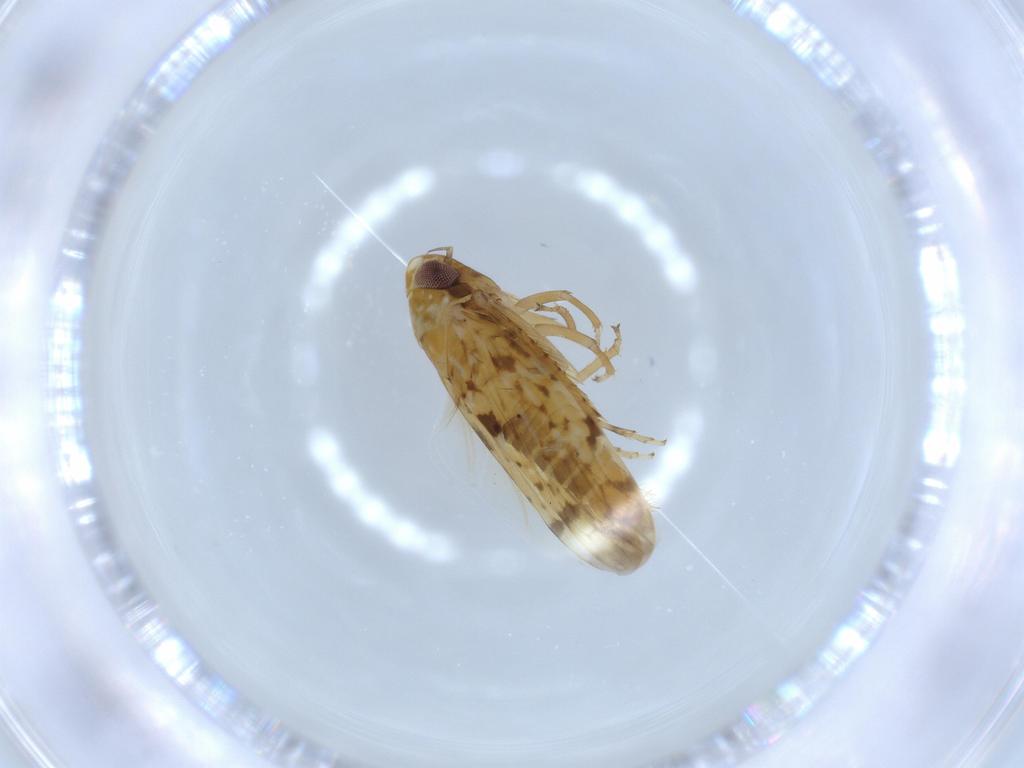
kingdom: Animalia
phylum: Arthropoda
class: Insecta
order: Hemiptera
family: Cicadellidae
